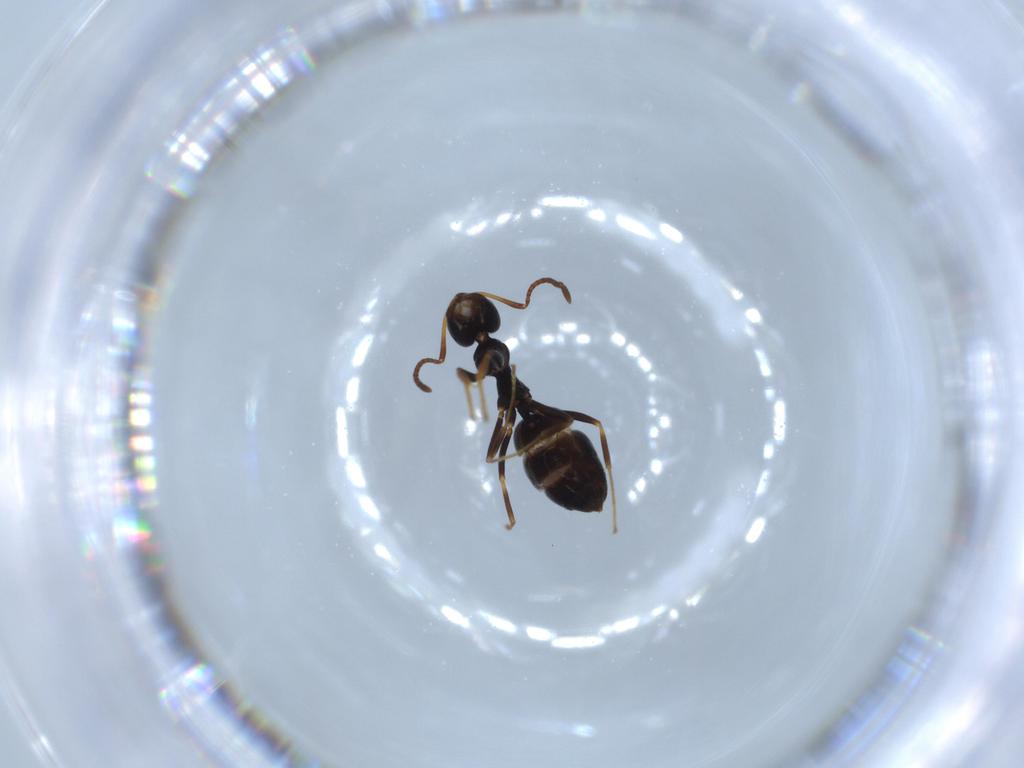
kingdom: Animalia
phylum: Arthropoda
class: Insecta
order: Hymenoptera
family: Formicidae
